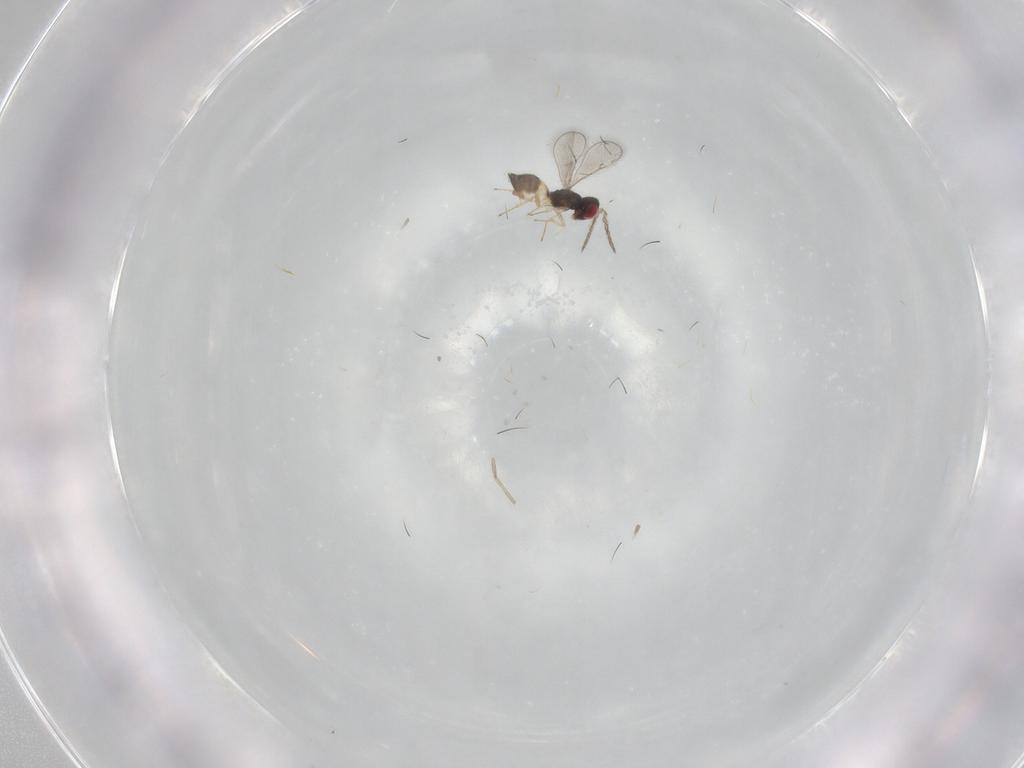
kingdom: Animalia
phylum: Arthropoda
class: Insecta
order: Hymenoptera
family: Eulophidae
